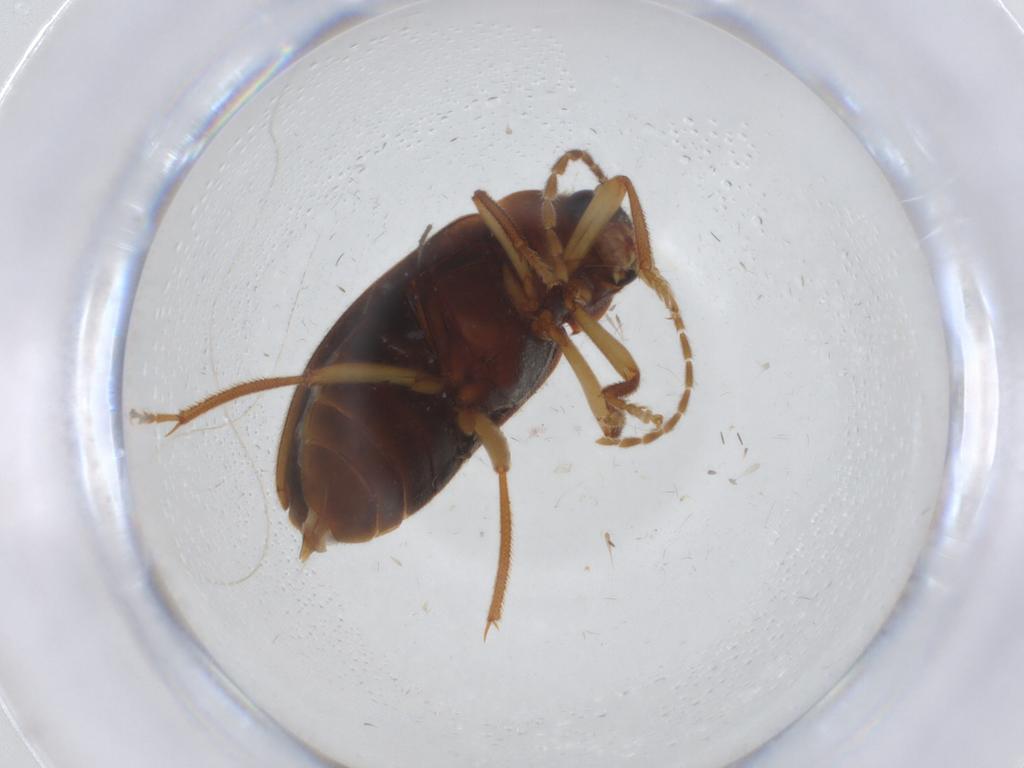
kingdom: Animalia
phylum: Arthropoda
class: Insecta
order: Coleoptera
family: Ptilodactylidae
